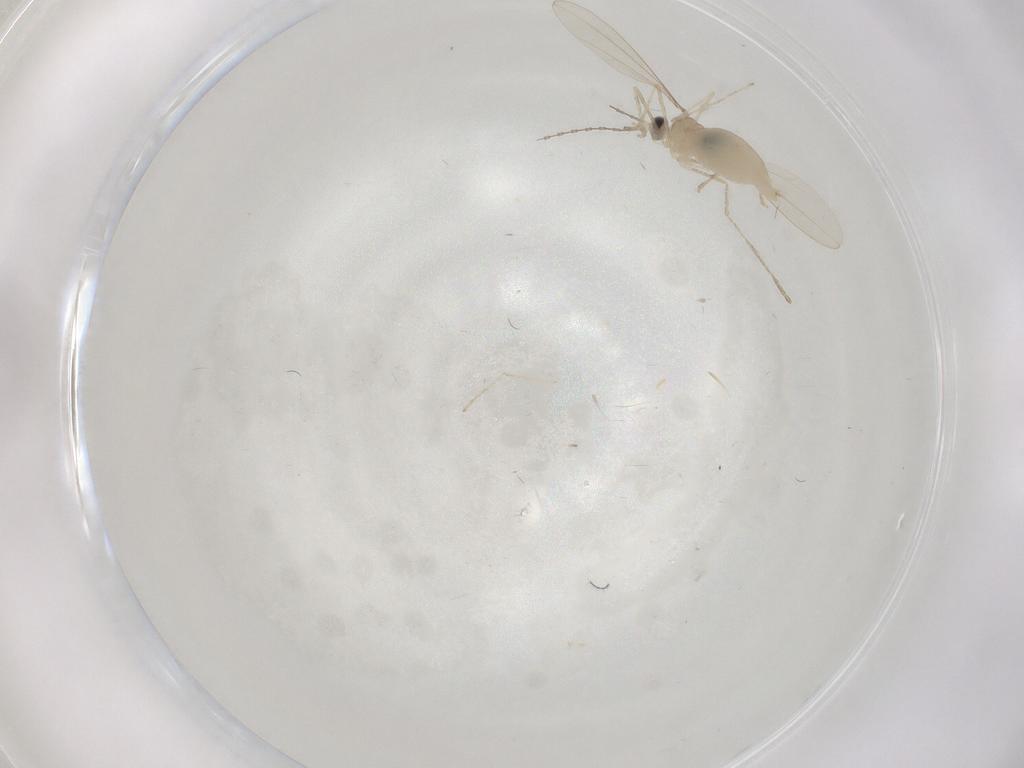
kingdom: Animalia
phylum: Arthropoda
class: Insecta
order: Diptera
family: Cecidomyiidae
